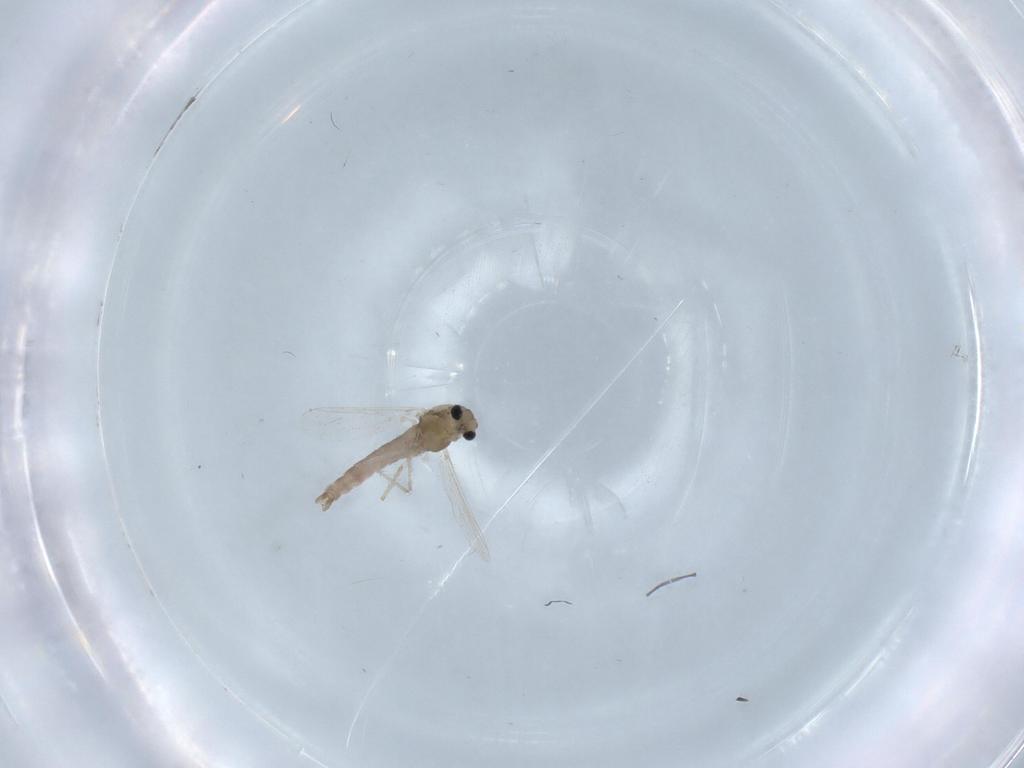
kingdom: Animalia
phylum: Arthropoda
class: Insecta
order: Diptera
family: Chironomidae
